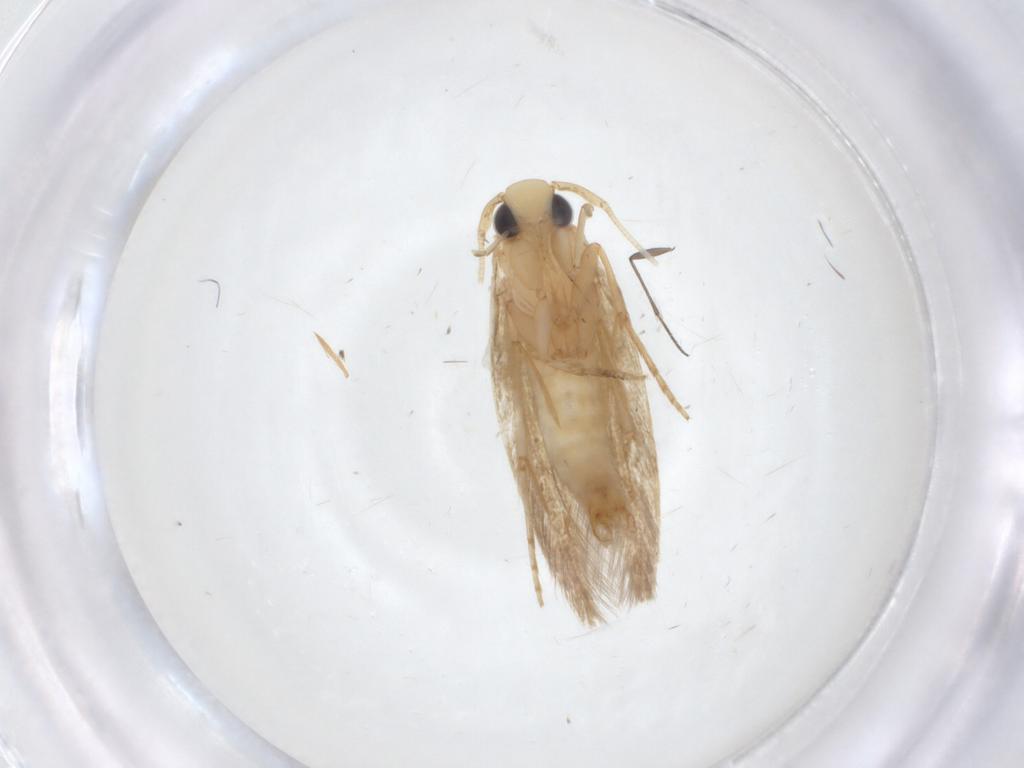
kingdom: Animalia
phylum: Arthropoda
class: Insecta
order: Lepidoptera
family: Tineidae
